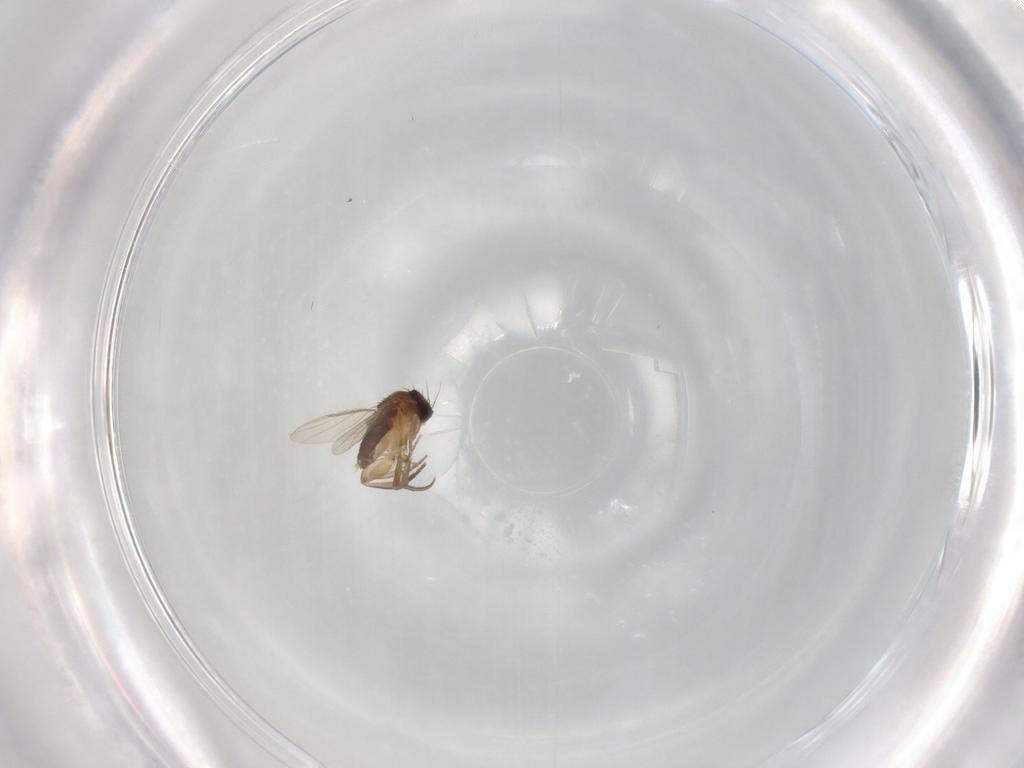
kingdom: Animalia
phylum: Arthropoda
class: Insecta
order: Diptera
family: Phoridae
